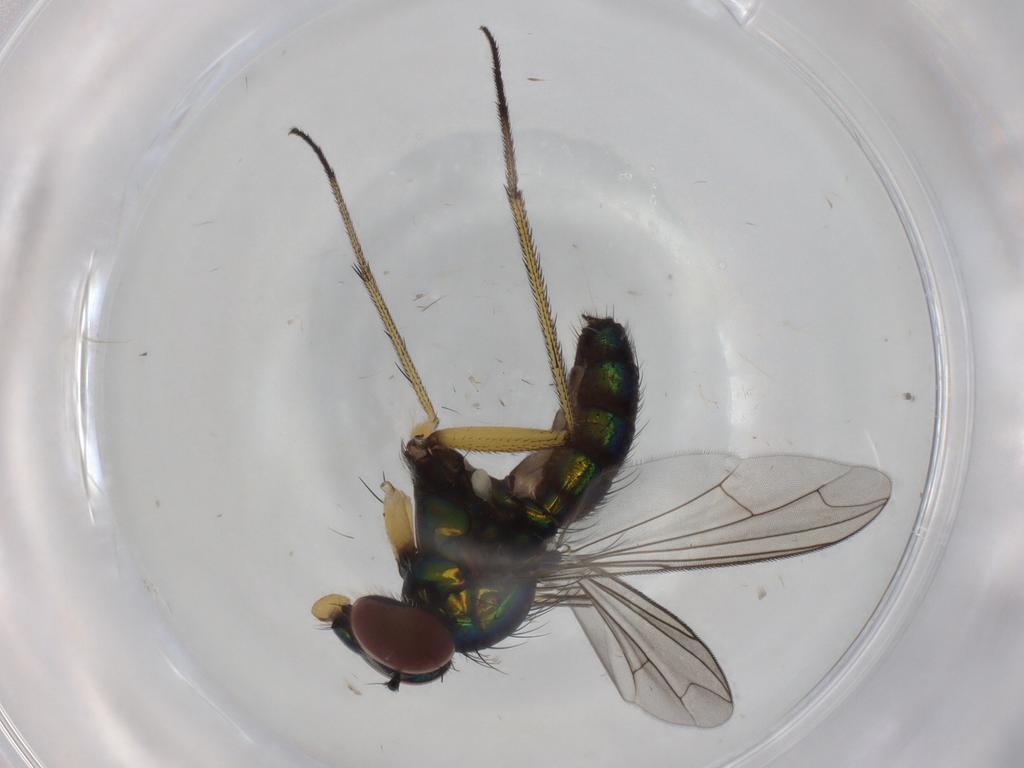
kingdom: Animalia
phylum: Arthropoda
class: Insecta
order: Diptera
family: Dolichopodidae
